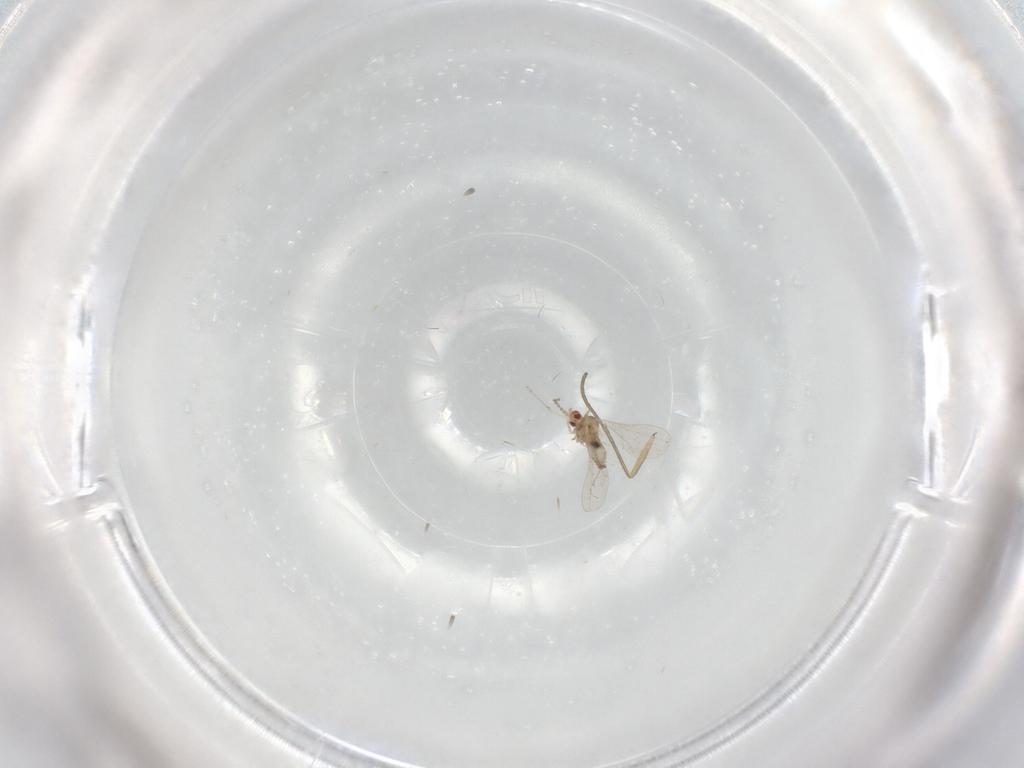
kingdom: Animalia
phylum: Arthropoda
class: Insecta
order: Diptera
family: Sciaridae
